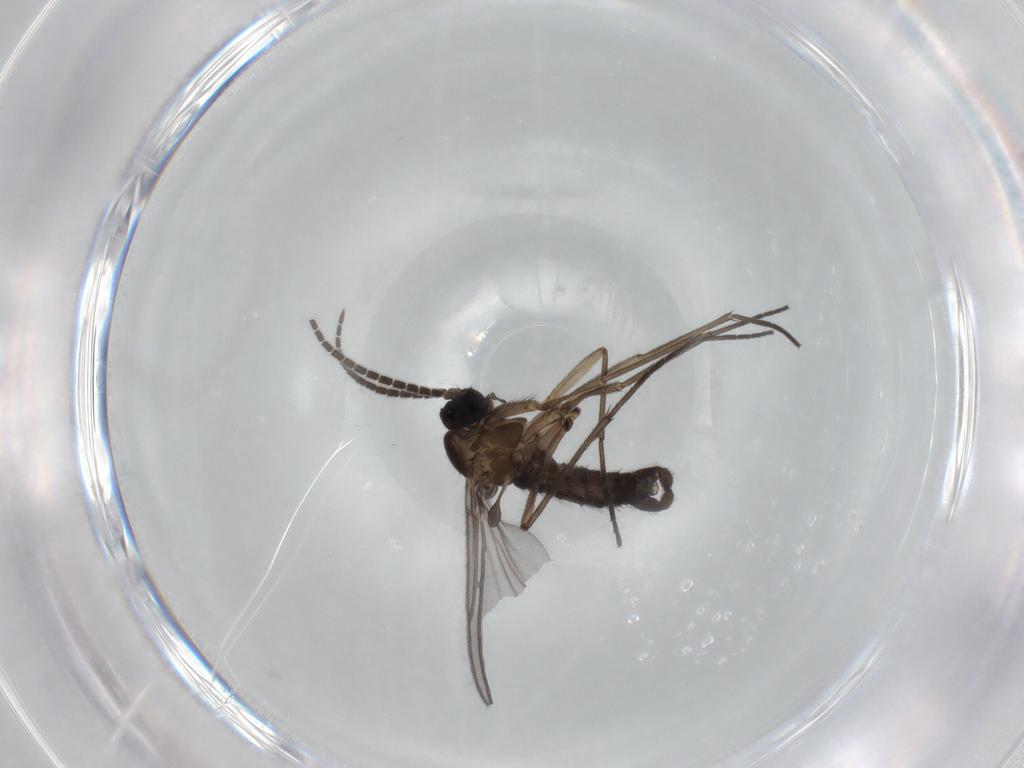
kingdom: Animalia
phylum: Arthropoda
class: Insecta
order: Diptera
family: Sciaridae
